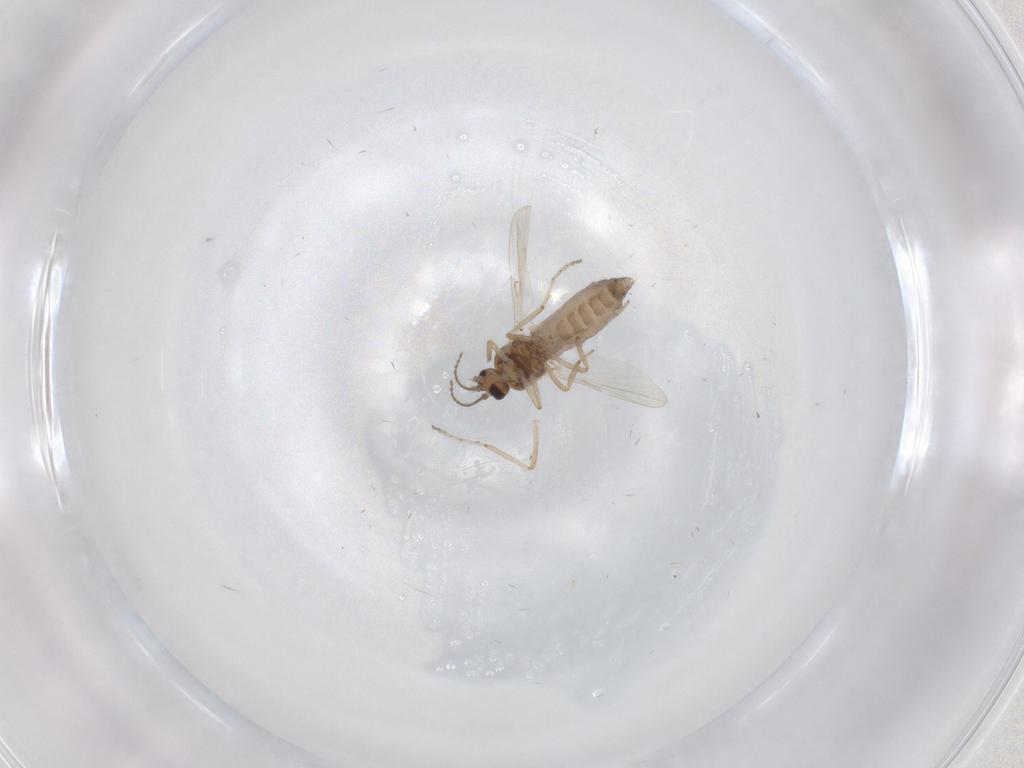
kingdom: Animalia
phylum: Arthropoda
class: Insecta
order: Diptera
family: Ceratopogonidae
